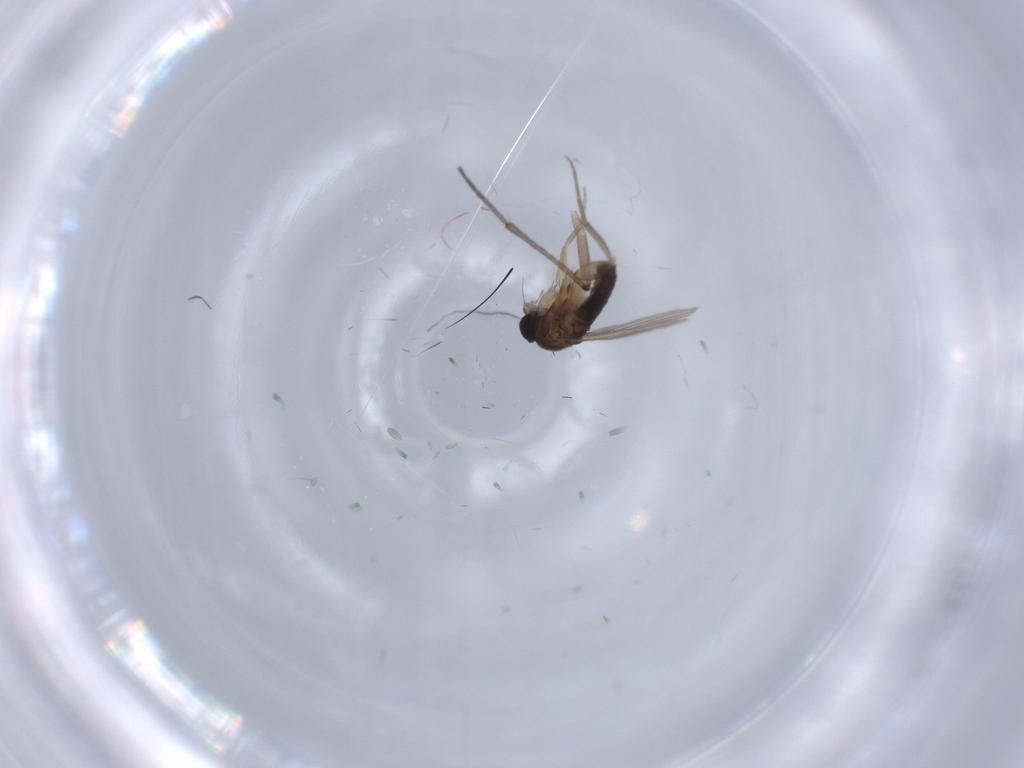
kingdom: Animalia
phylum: Arthropoda
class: Insecta
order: Diptera
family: Phoridae
